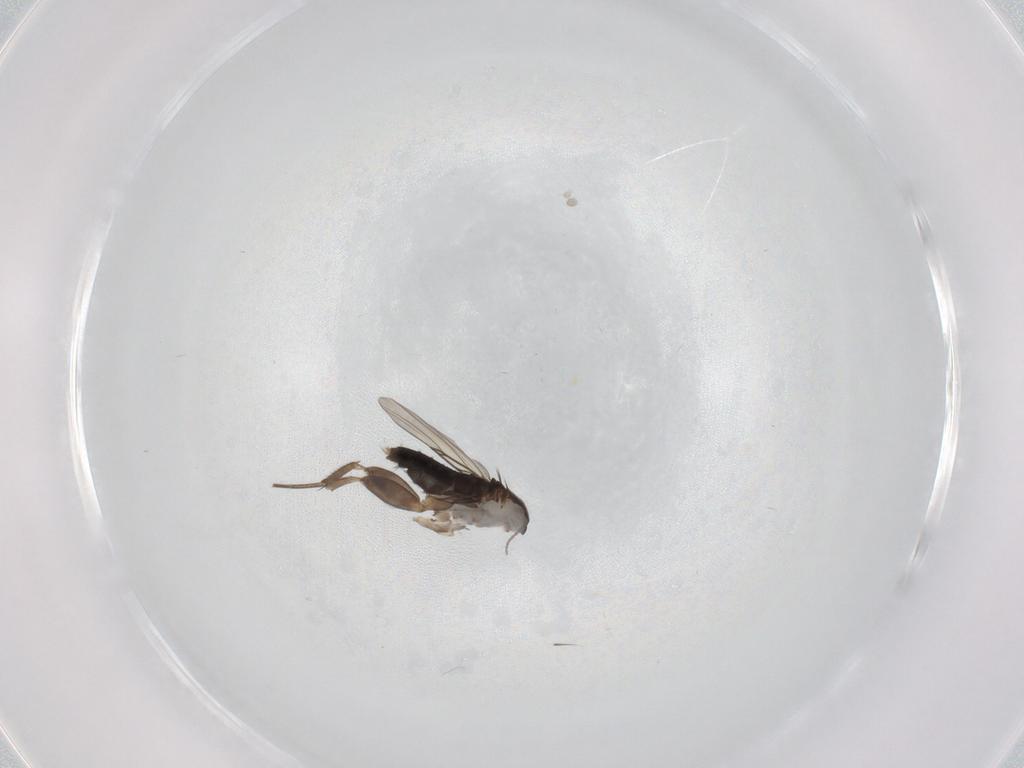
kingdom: Animalia
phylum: Arthropoda
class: Insecta
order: Diptera
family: Phoridae
